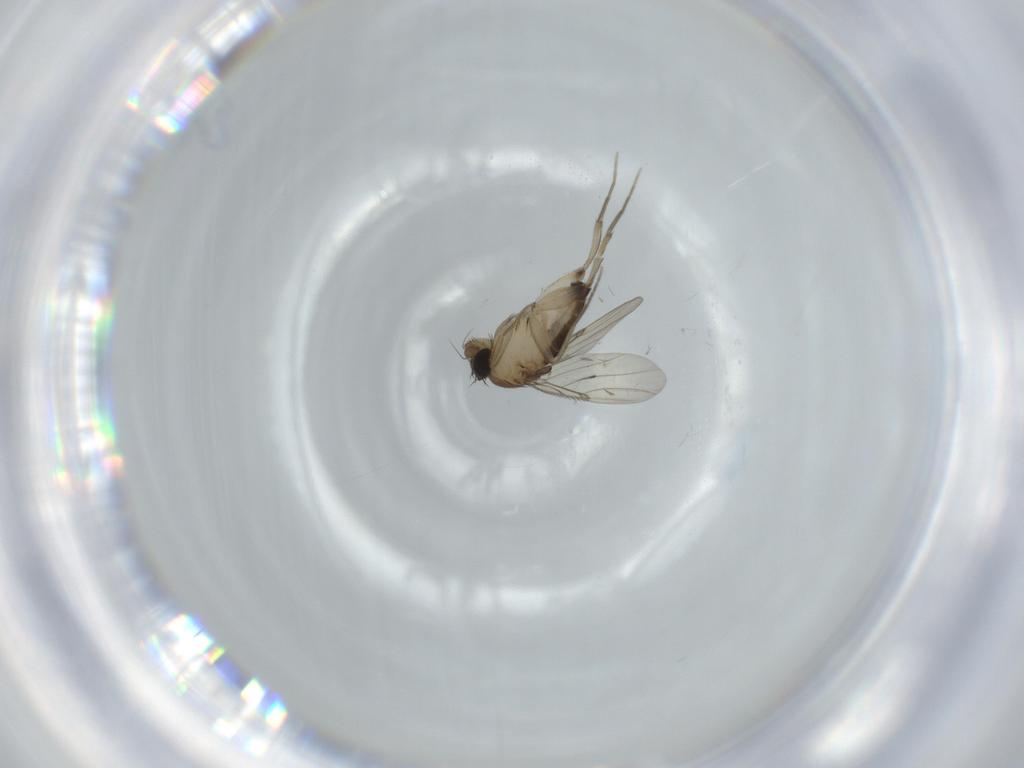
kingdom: Animalia
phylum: Arthropoda
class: Insecta
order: Diptera
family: Phoridae
